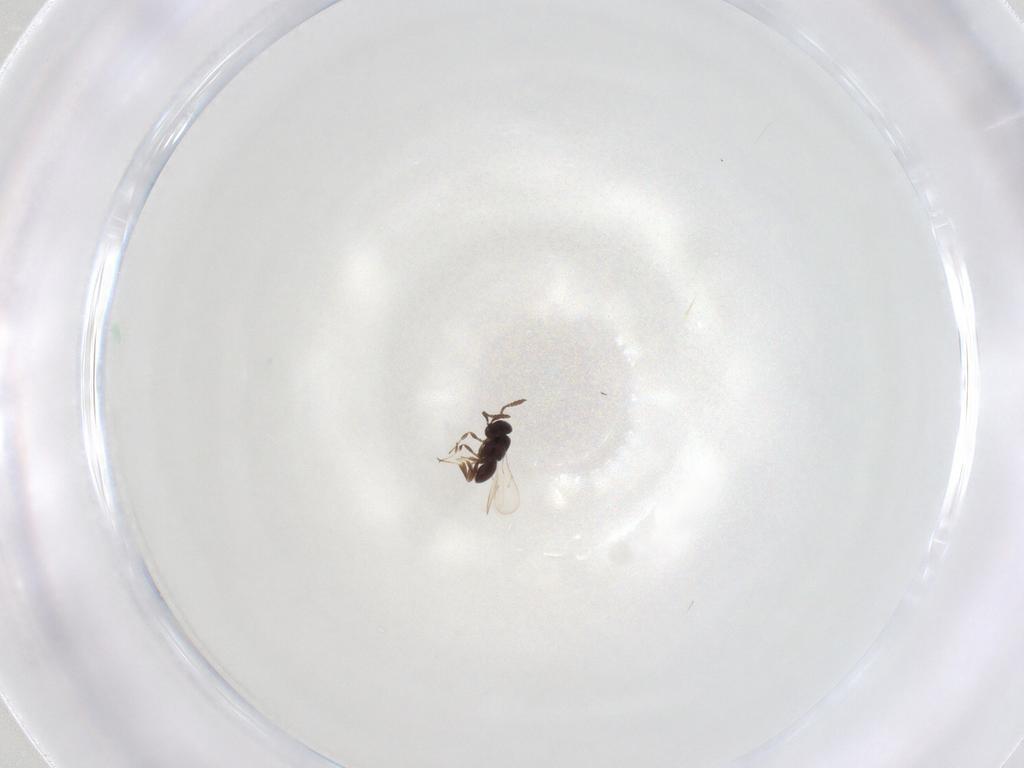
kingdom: Animalia
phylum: Arthropoda
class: Insecta
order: Hymenoptera
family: Scelionidae
